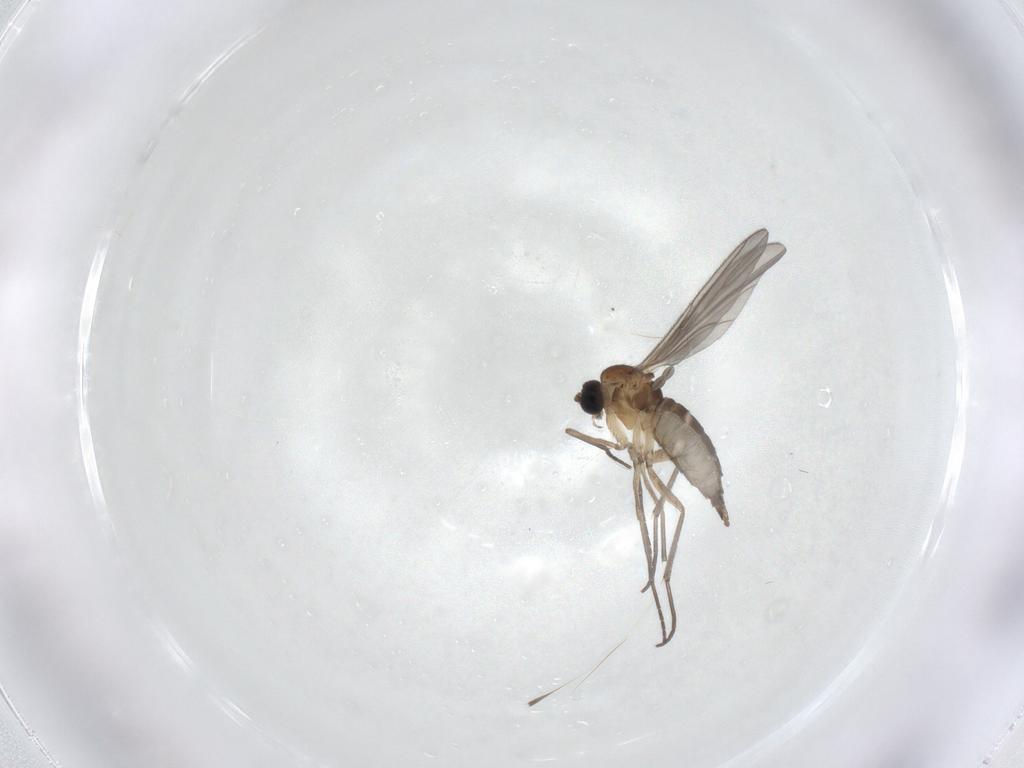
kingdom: Animalia
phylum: Arthropoda
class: Insecta
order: Diptera
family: Sciaridae
